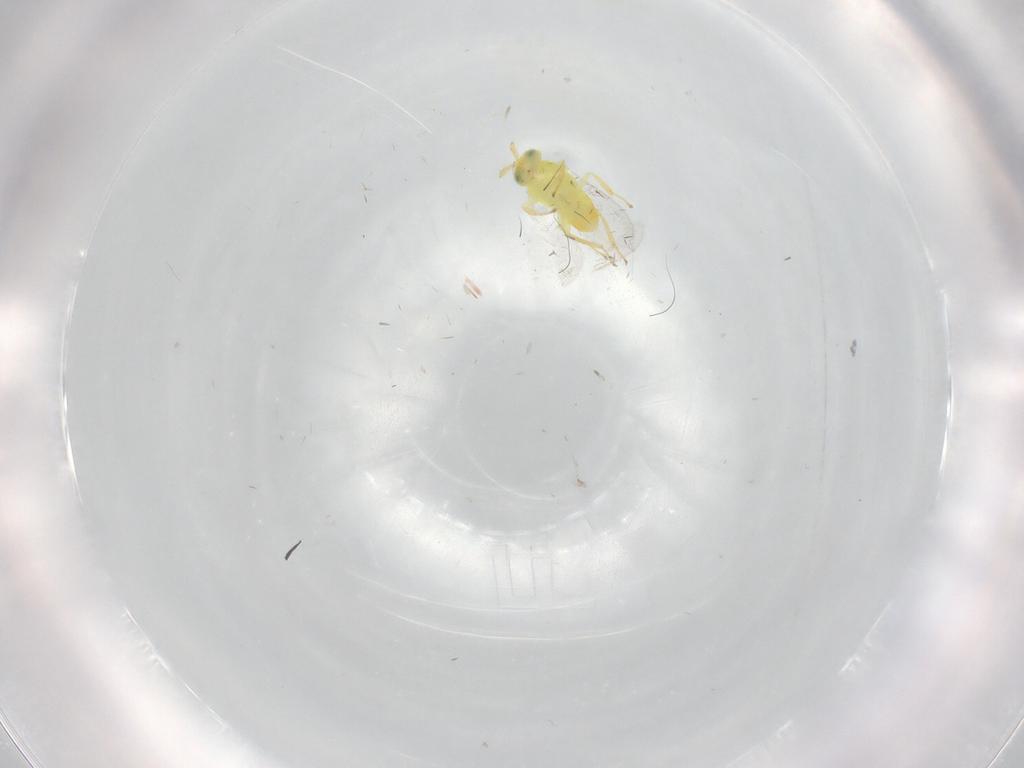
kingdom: Animalia
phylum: Arthropoda
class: Insecta
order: Hymenoptera
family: Aphelinidae
